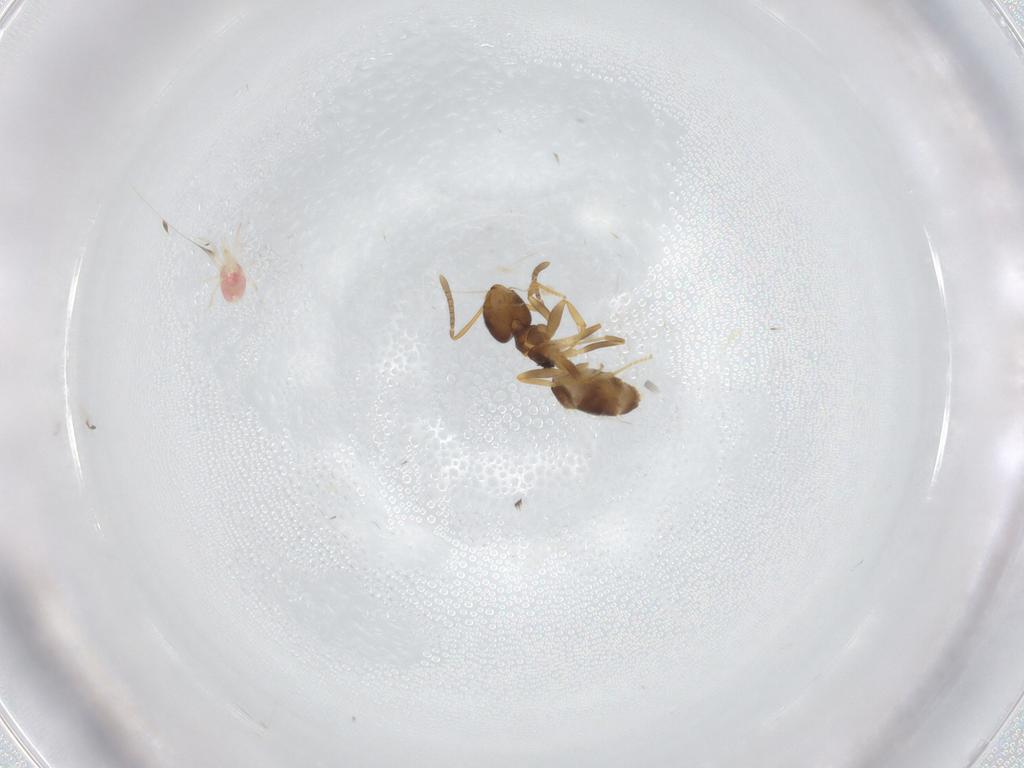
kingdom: Animalia
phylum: Arthropoda
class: Insecta
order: Hymenoptera
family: Formicidae
